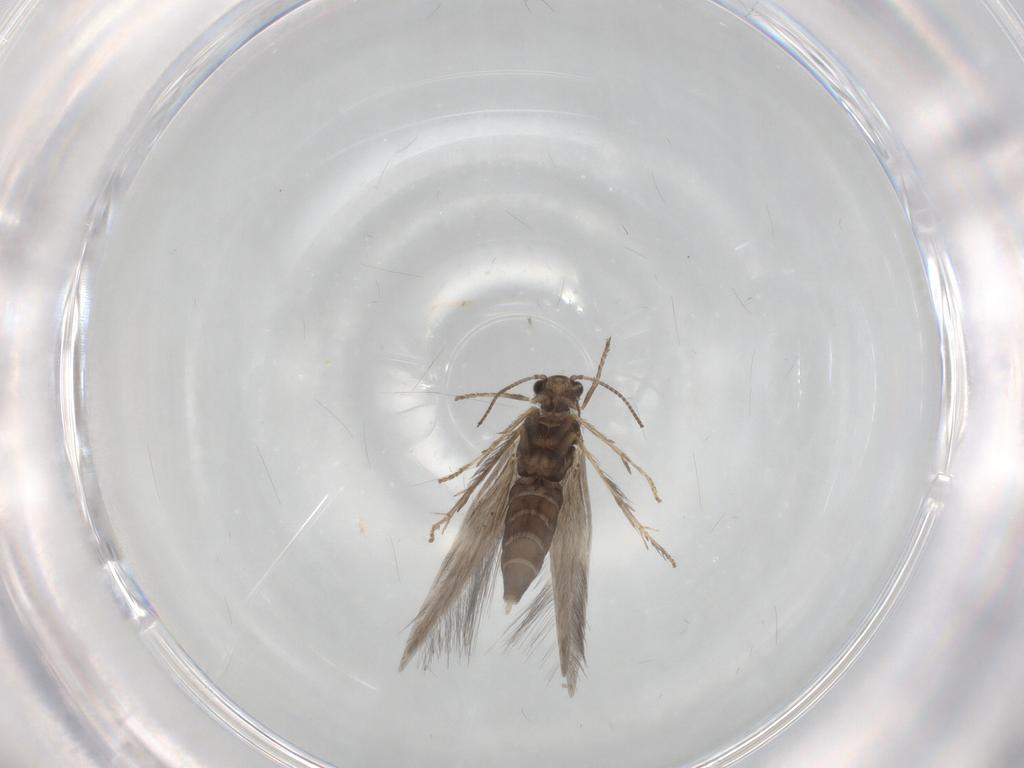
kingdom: Animalia
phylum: Arthropoda
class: Insecta
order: Trichoptera
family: Hydroptilidae
